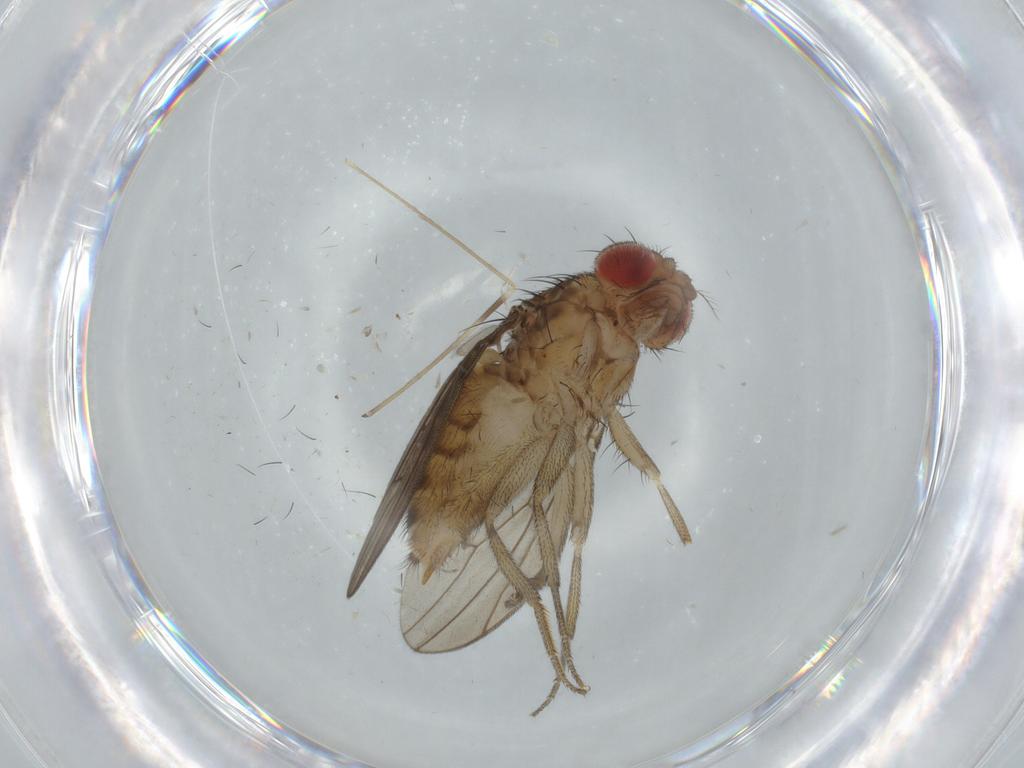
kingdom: Animalia
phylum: Arthropoda
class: Insecta
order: Diptera
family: Drosophilidae
